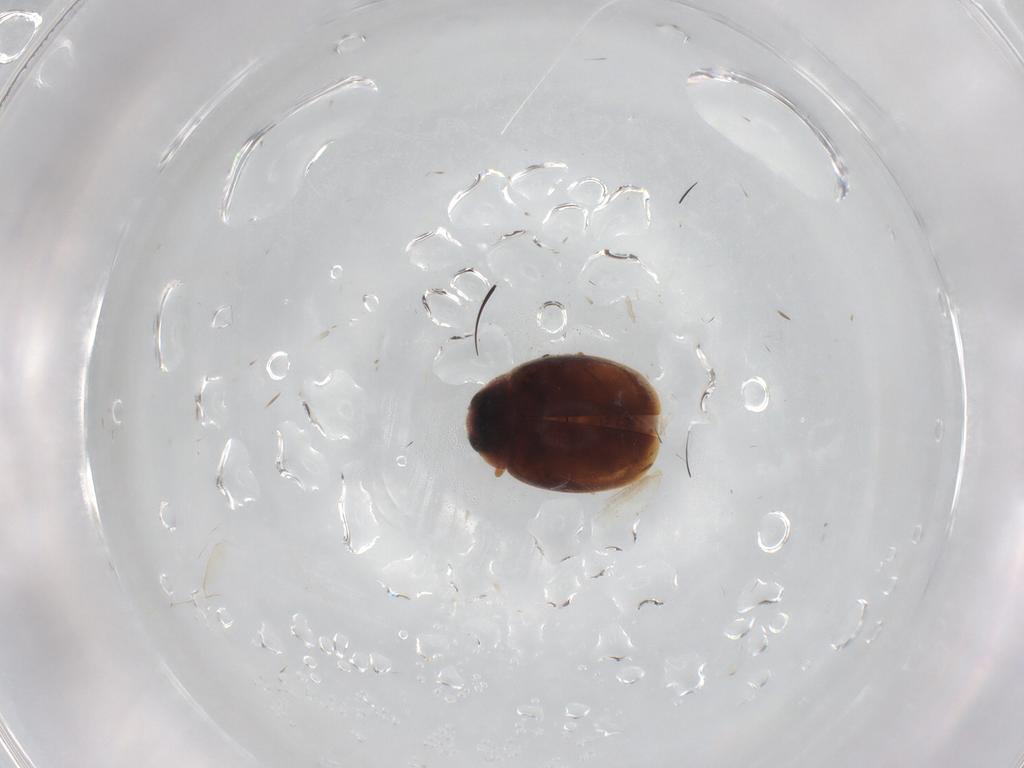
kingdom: Animalia
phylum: Arthropoda
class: Insecta
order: Coleoptera
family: Coccinellidae
